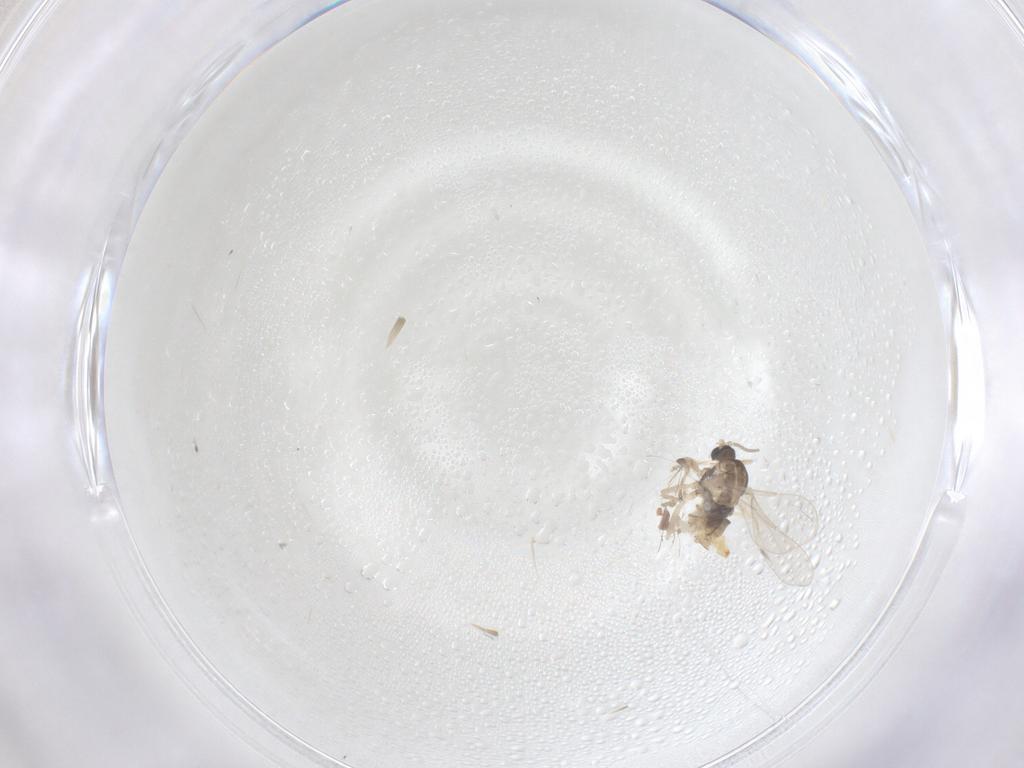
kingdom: Animalia
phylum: Arthropoda
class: Insecta
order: Diptera
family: Cecidomyiidae
